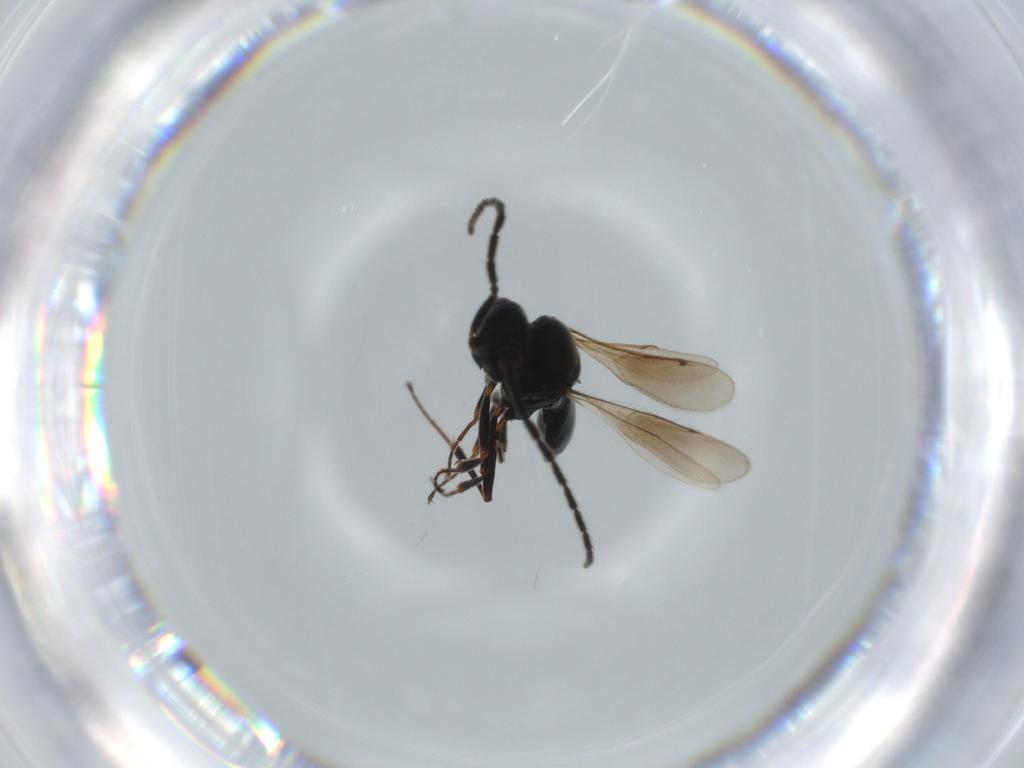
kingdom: Animalia
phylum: Arthropoda
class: Insecta
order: Hymenoptera
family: Scelionidae
